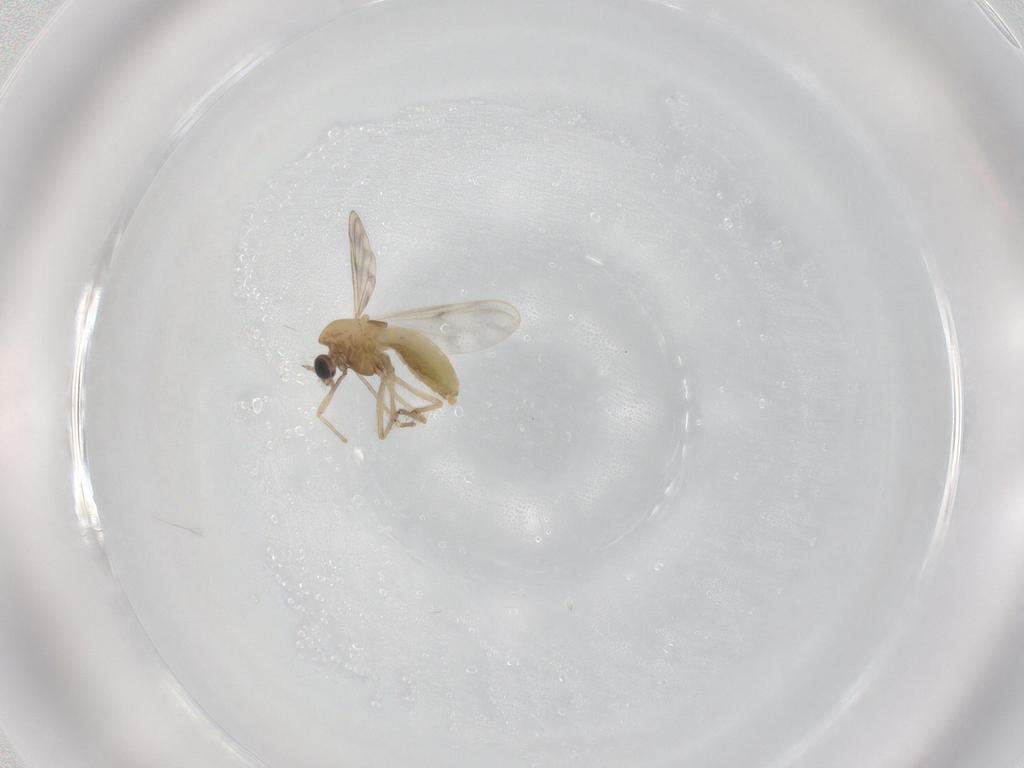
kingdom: Animalia
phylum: Arthropoda
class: Insecta
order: Diptera
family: Chironomidae
